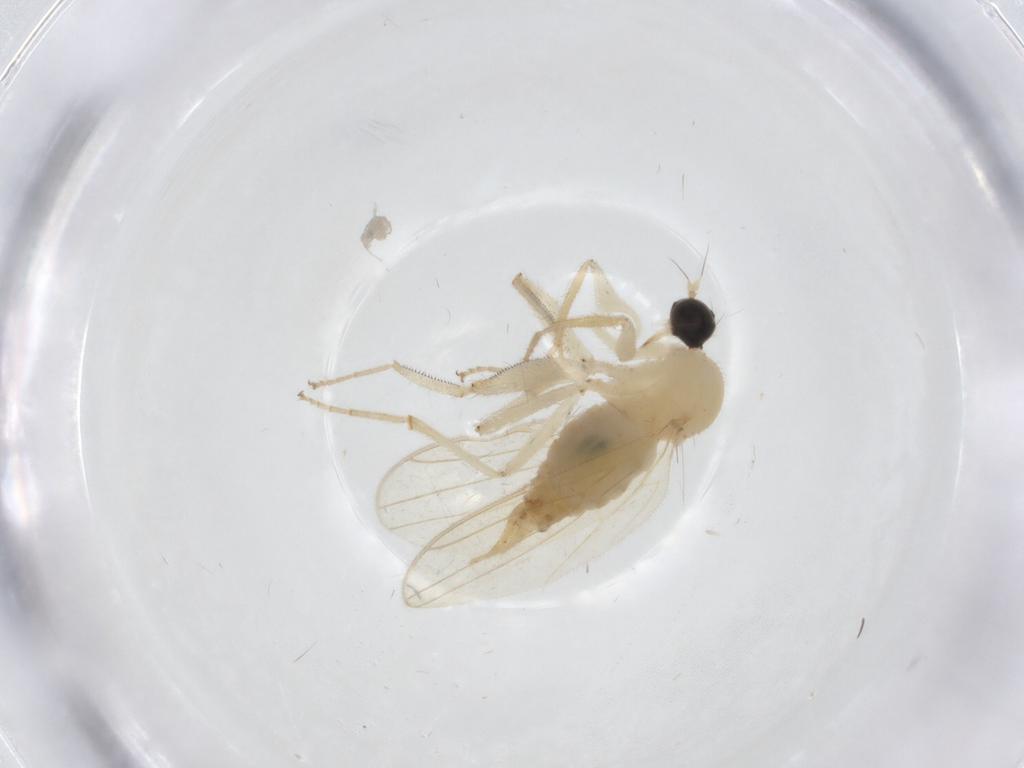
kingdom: Animalia
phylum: Arthropoda
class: Insecta
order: Diptera
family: Hybotidae
